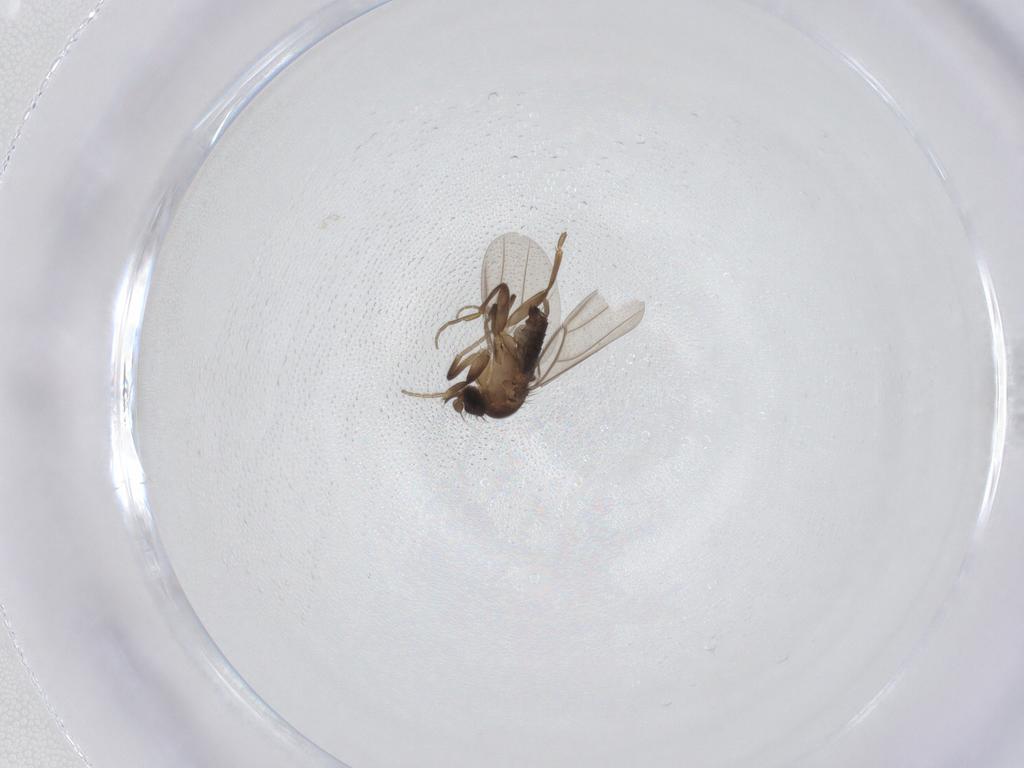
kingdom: Animalia
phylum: Arthropoda
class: Insecta
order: Diptera
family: Phoridae
